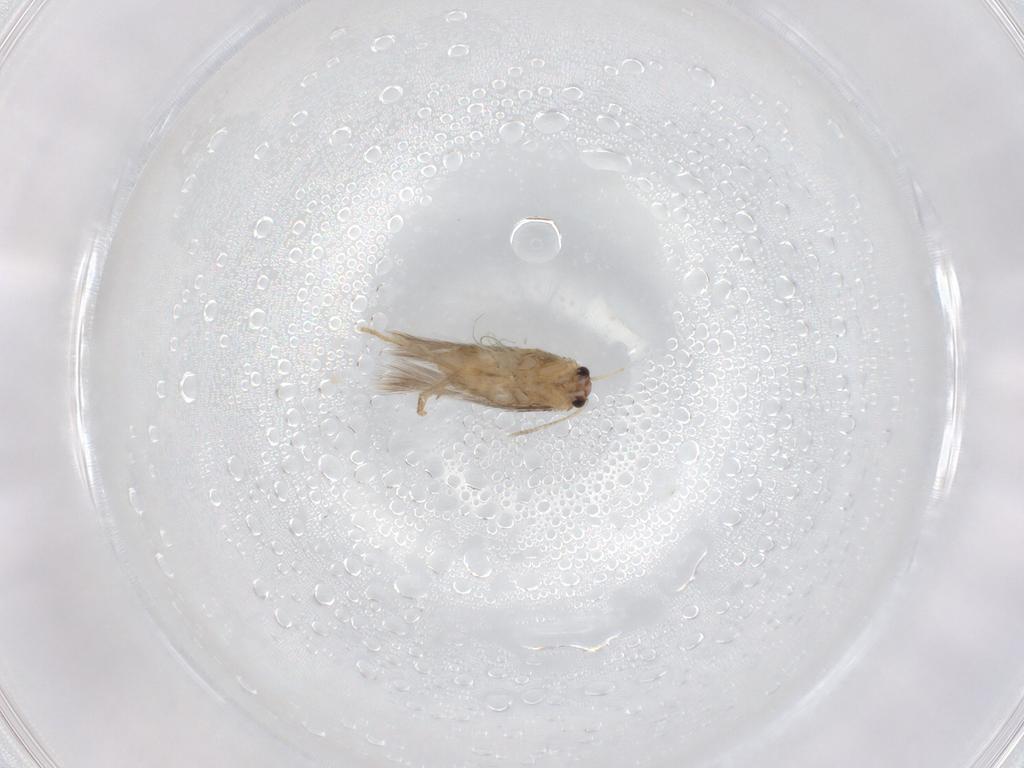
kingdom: Animalia
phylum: Arthropoda
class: Insecta
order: Lepidoptera
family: Nepticulidae
